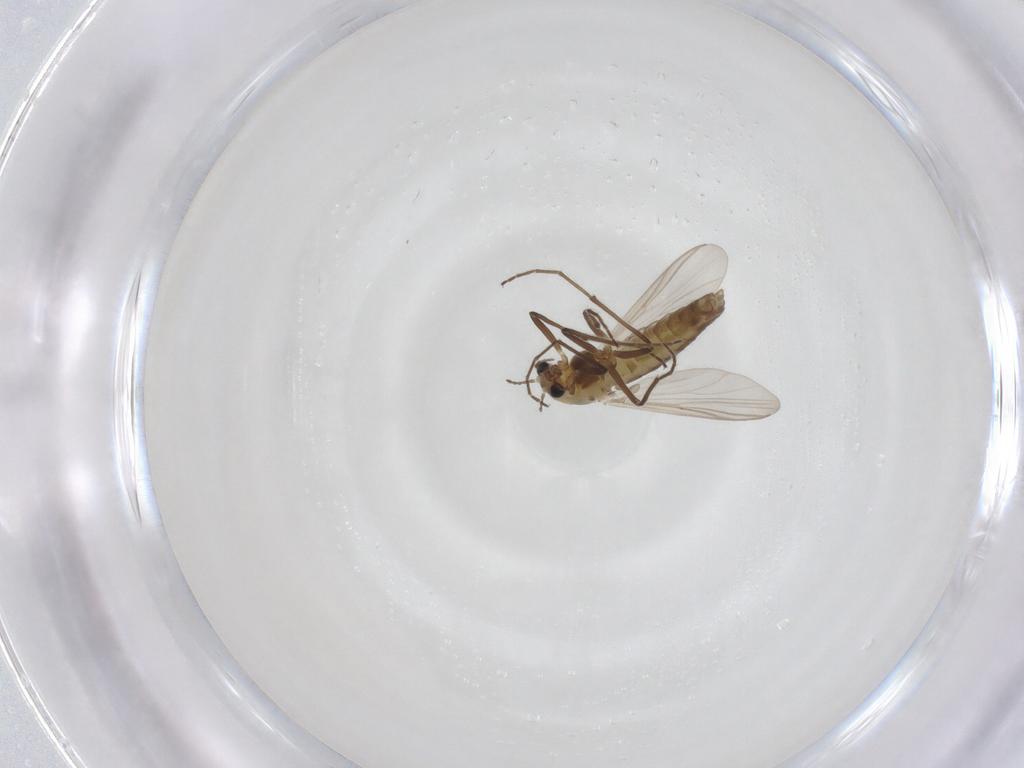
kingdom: Animalia
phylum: Arthropoda
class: Insecta
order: Diptera
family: Chironomidae
